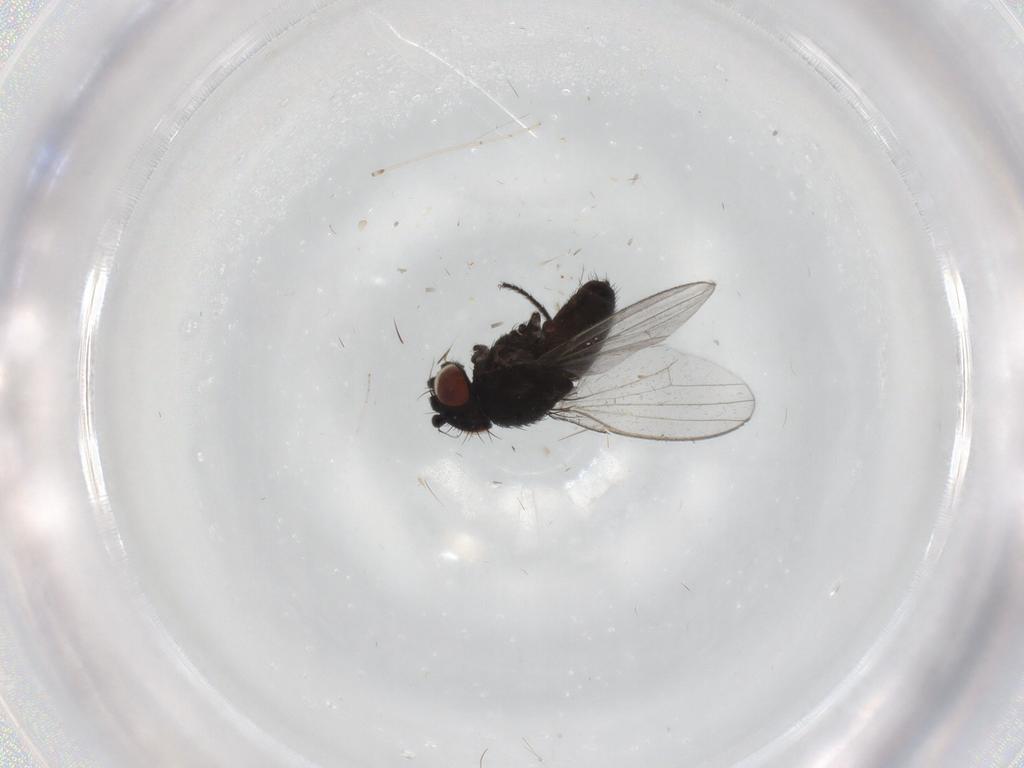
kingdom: Animalia
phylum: Arthropoda
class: Insecta
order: Diptera
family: Milichiidae
